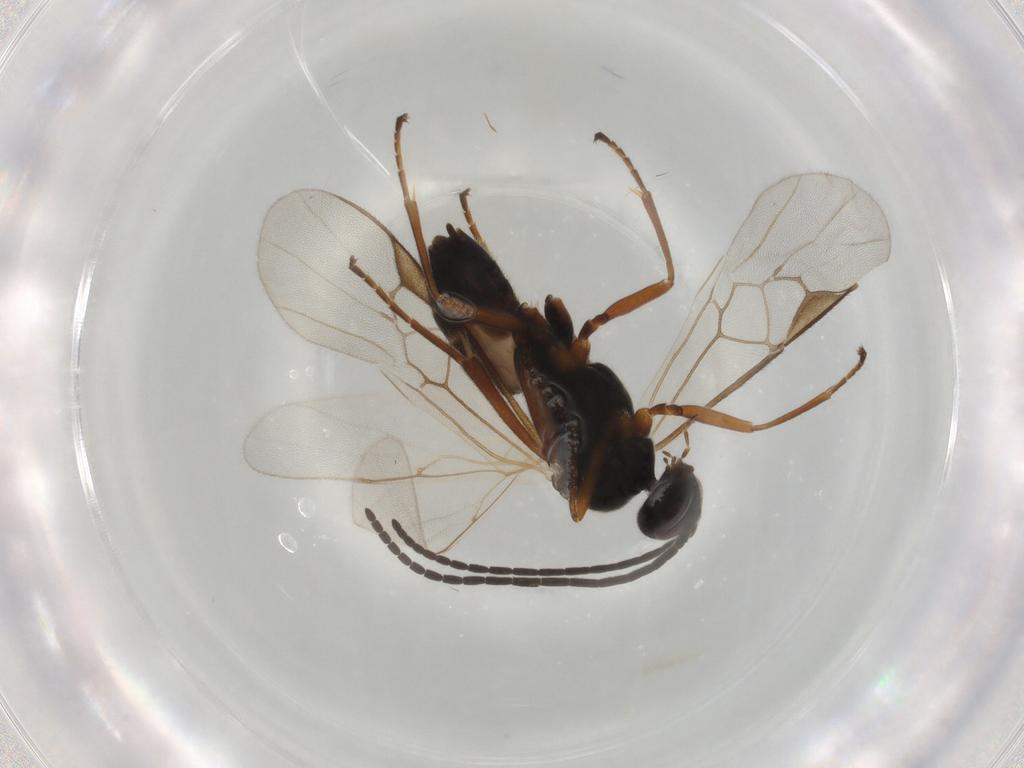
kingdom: Animalia
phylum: Arthropoda
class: Insecta
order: Hymenoptera
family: Braconidae
